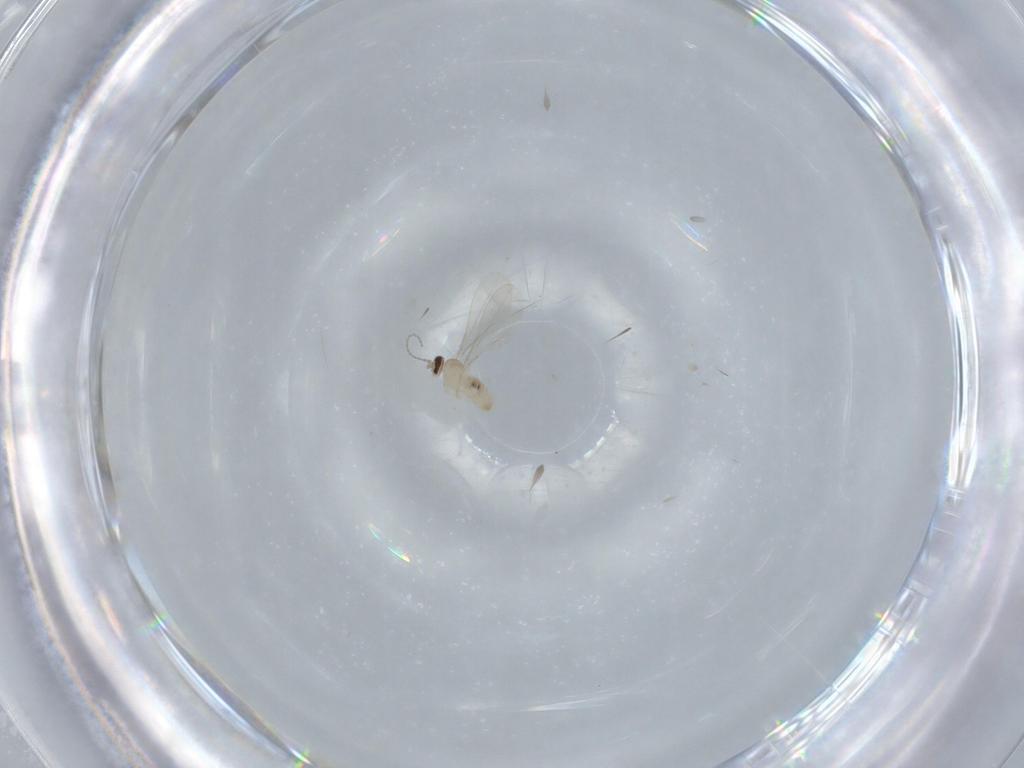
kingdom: Animalia
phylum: Arthropoda
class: Insecta
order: Diptera
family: Cecidomyiidae
